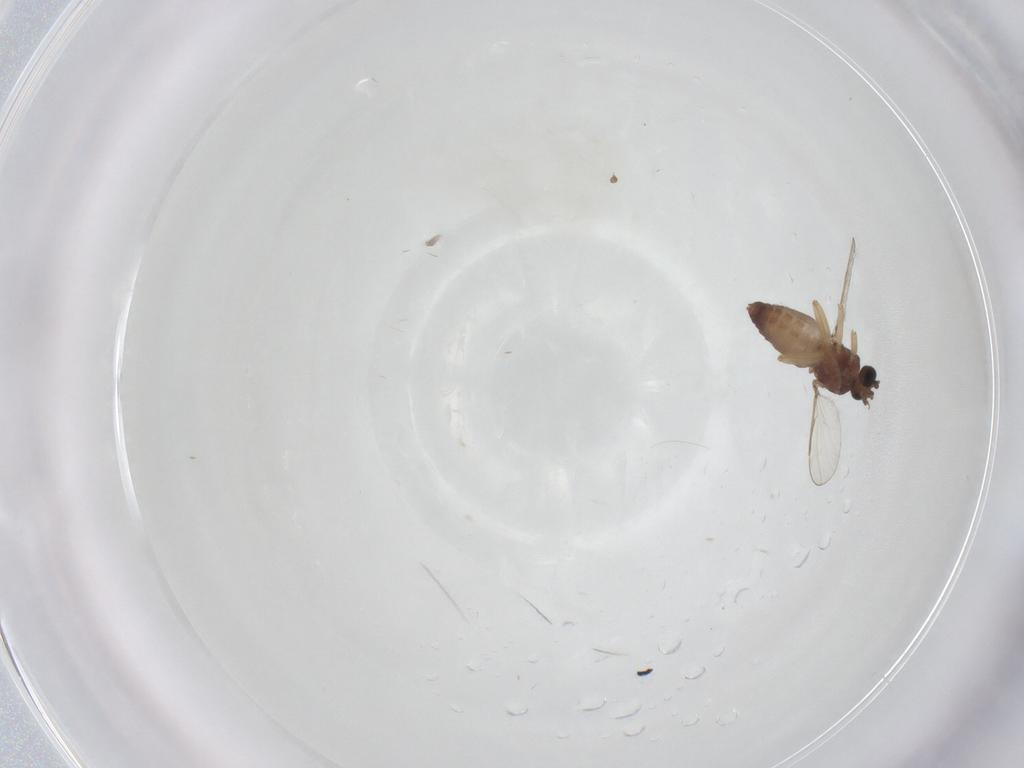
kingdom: Animalia
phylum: Arthropoda
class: Insecta
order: Diptera
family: Ceratopogonidae
